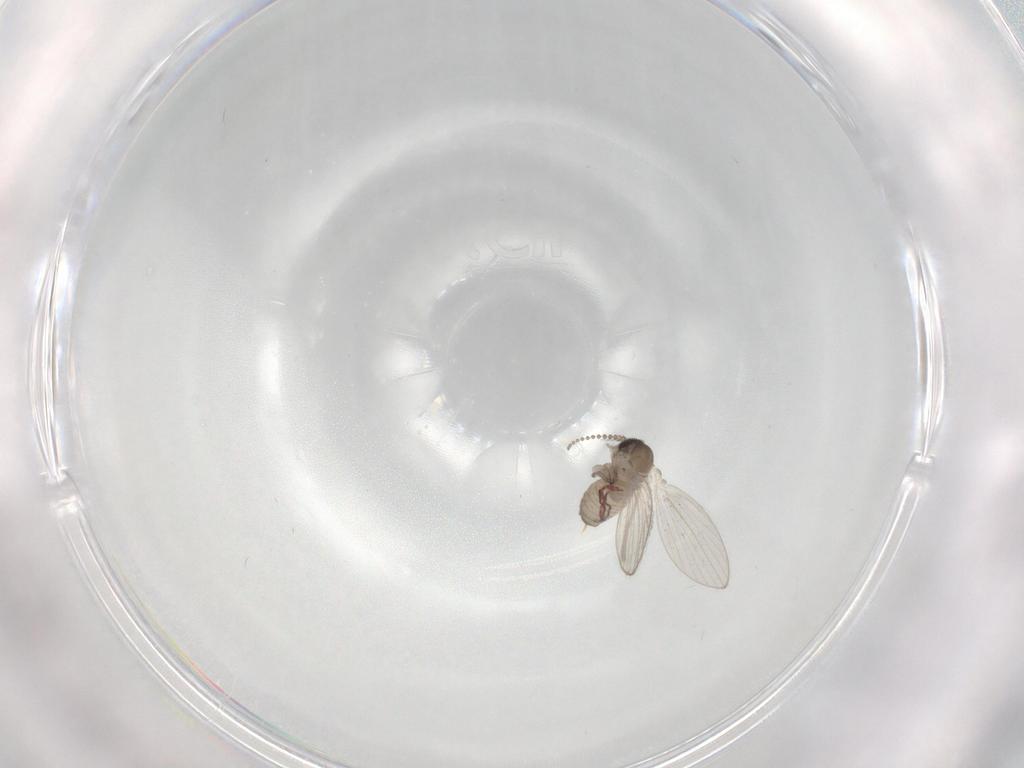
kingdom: Animalia
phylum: Arthropoda
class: Insecta
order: Diptera
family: Psychodidae
